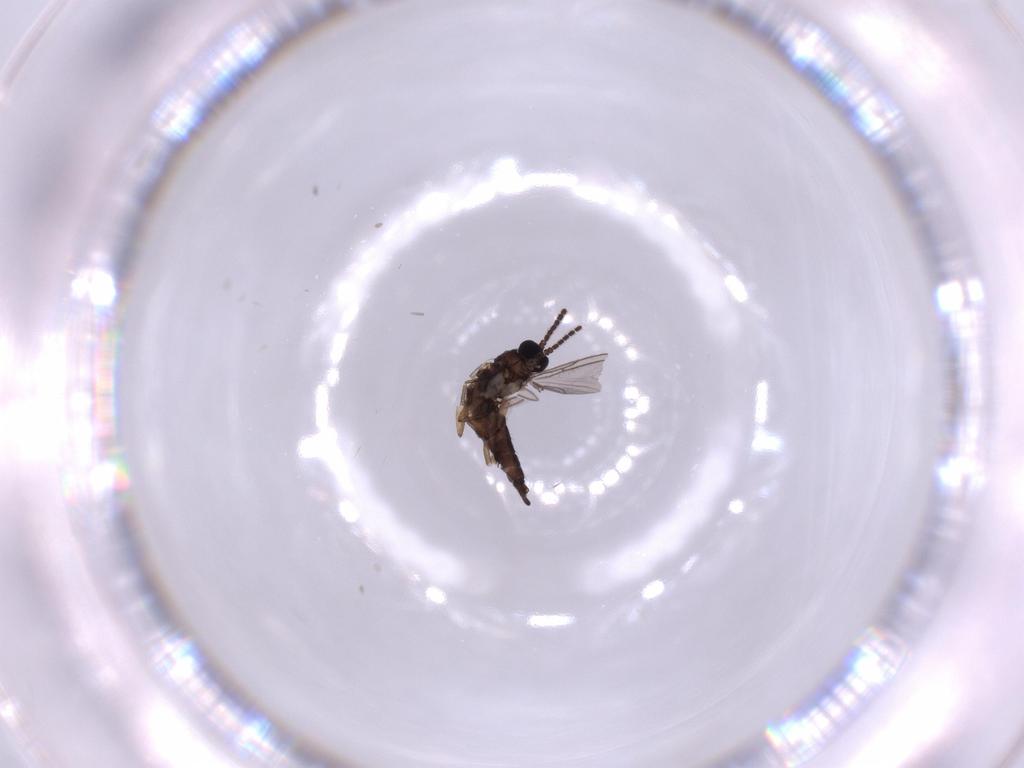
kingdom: Animalia
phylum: Arthropoda
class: Insecta
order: Diptera
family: Sciaridae
